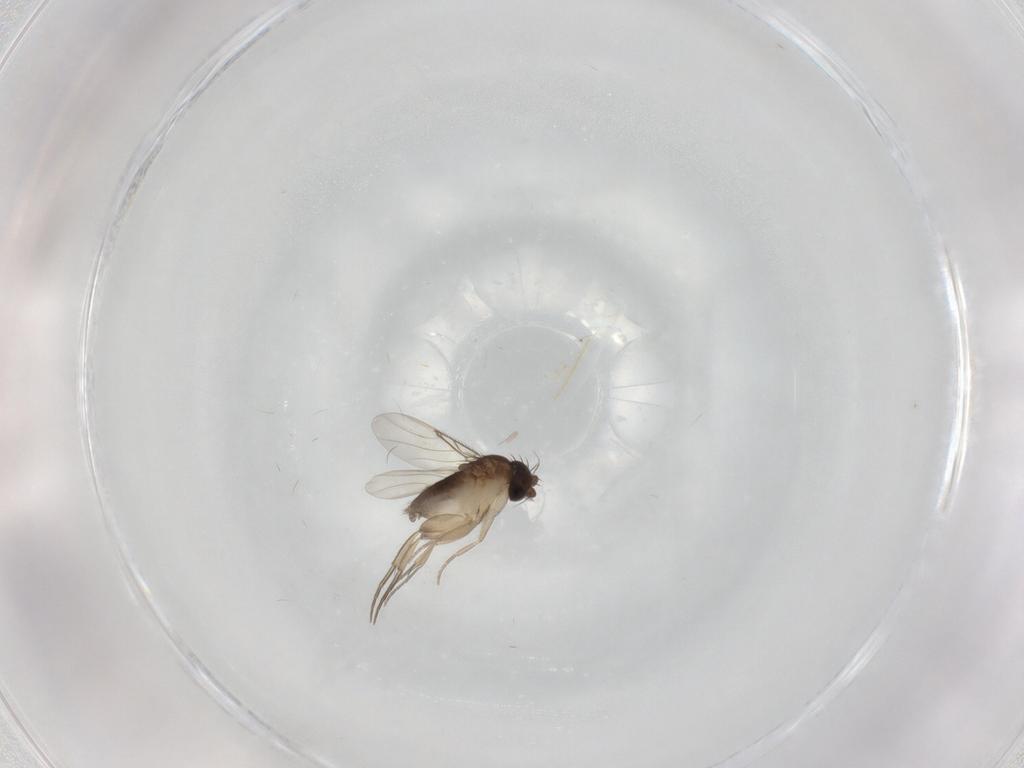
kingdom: Animalia
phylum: Arthropoda
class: Insecta
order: Diptera
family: Phoridae
